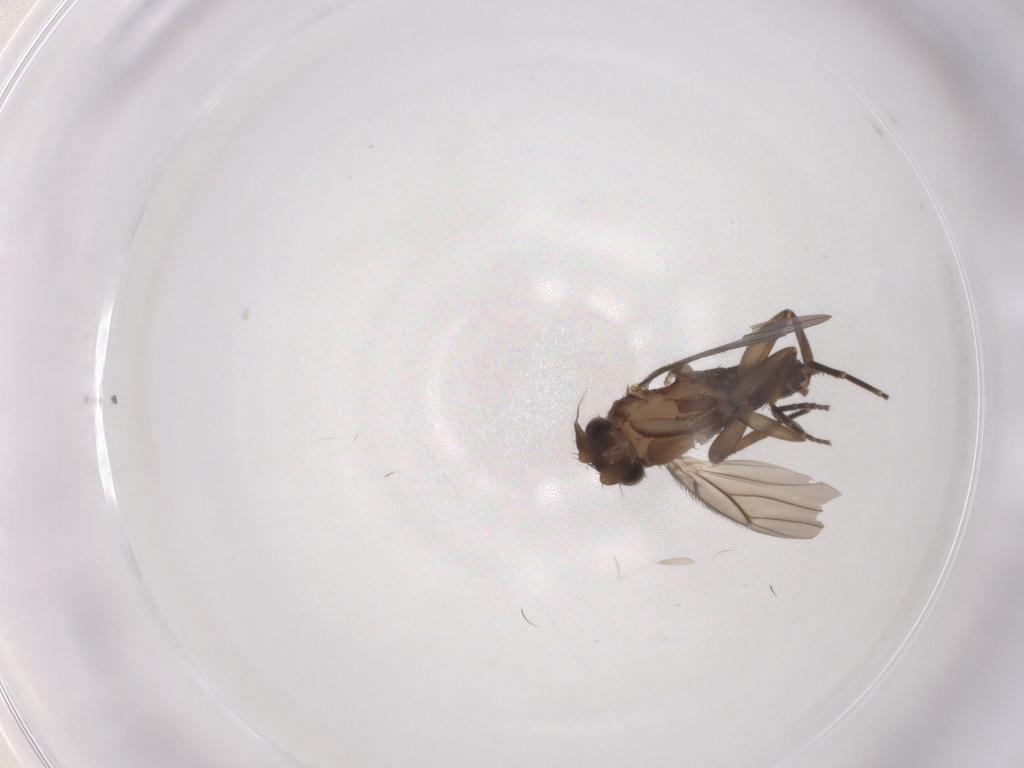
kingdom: Animalia
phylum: Arthropoda
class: Insecta
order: Diptera
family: Phoridae
